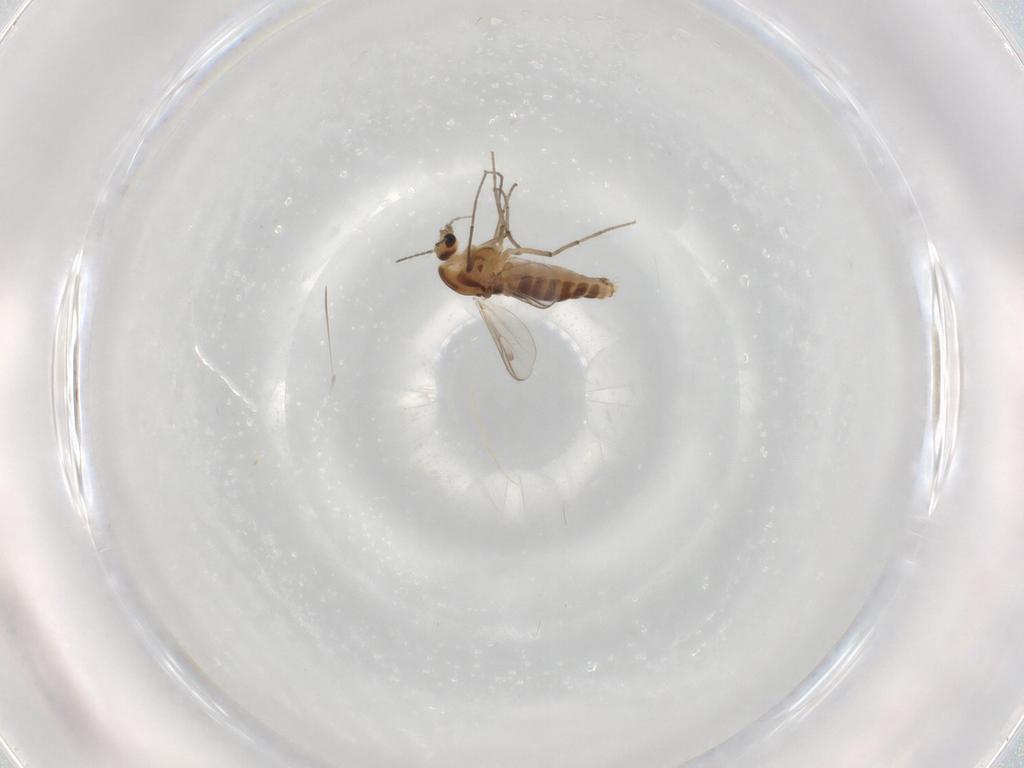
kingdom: Animalia
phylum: Arthropoda
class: Insecta
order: Diptera
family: Chironomidae
